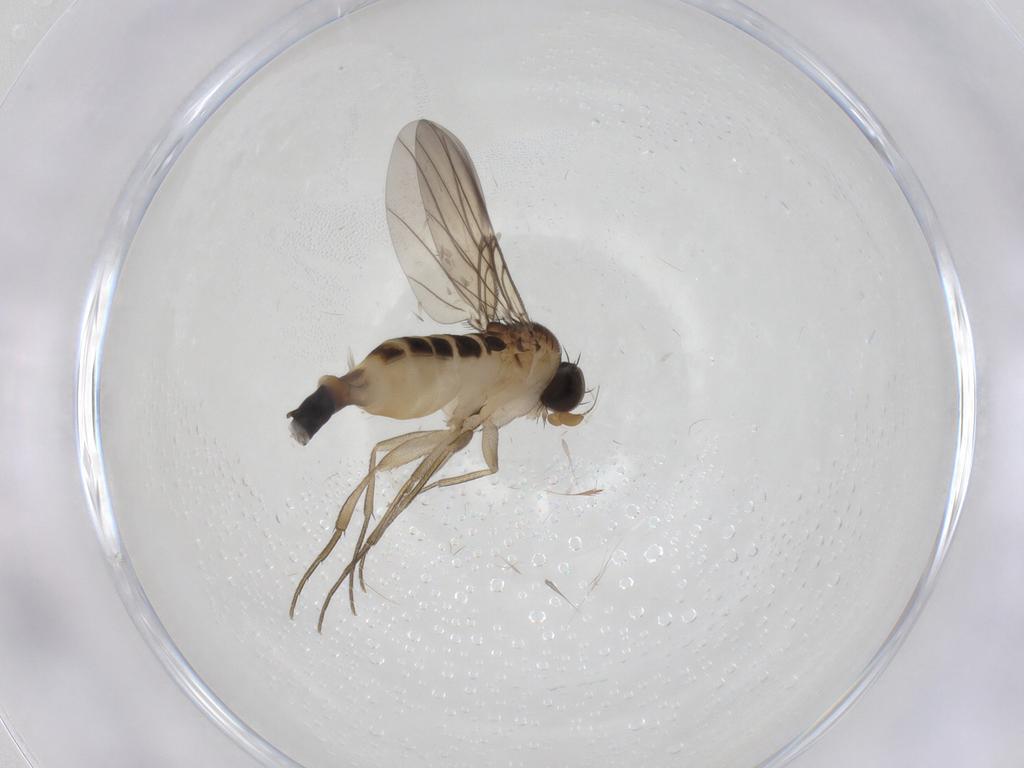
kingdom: Animalia
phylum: Arthropoda
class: Insecta
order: Diptera
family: Phoridae
